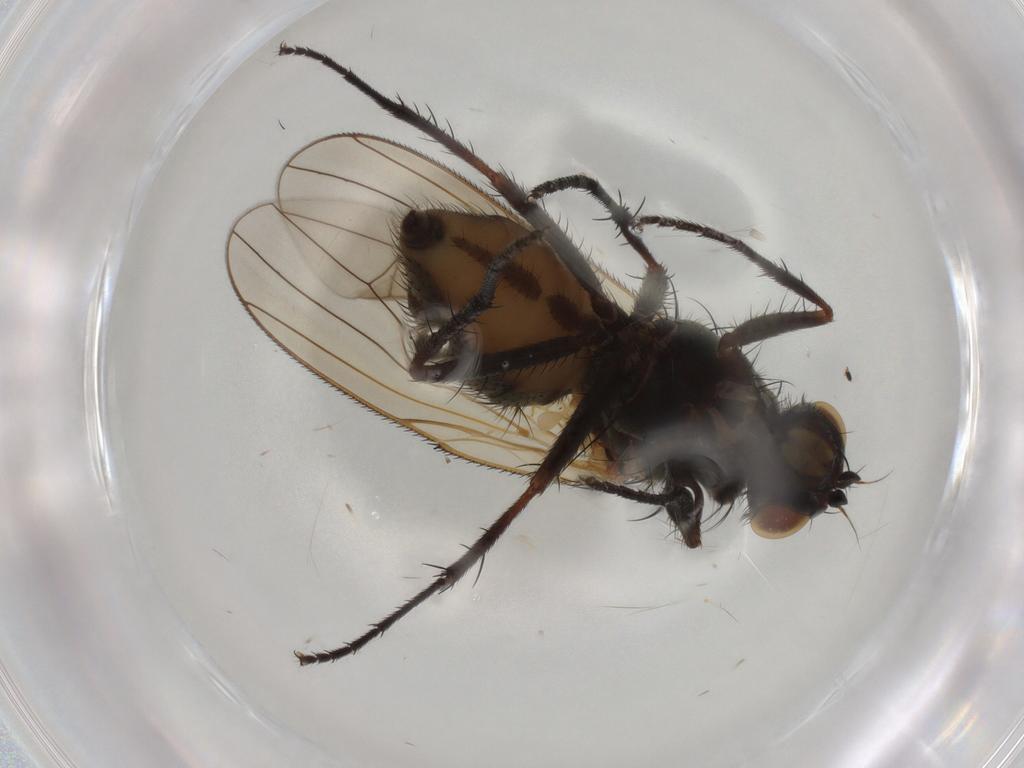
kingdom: Animalia
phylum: Arthropoda
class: Insecta
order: Diptera
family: Anthomyiidae
